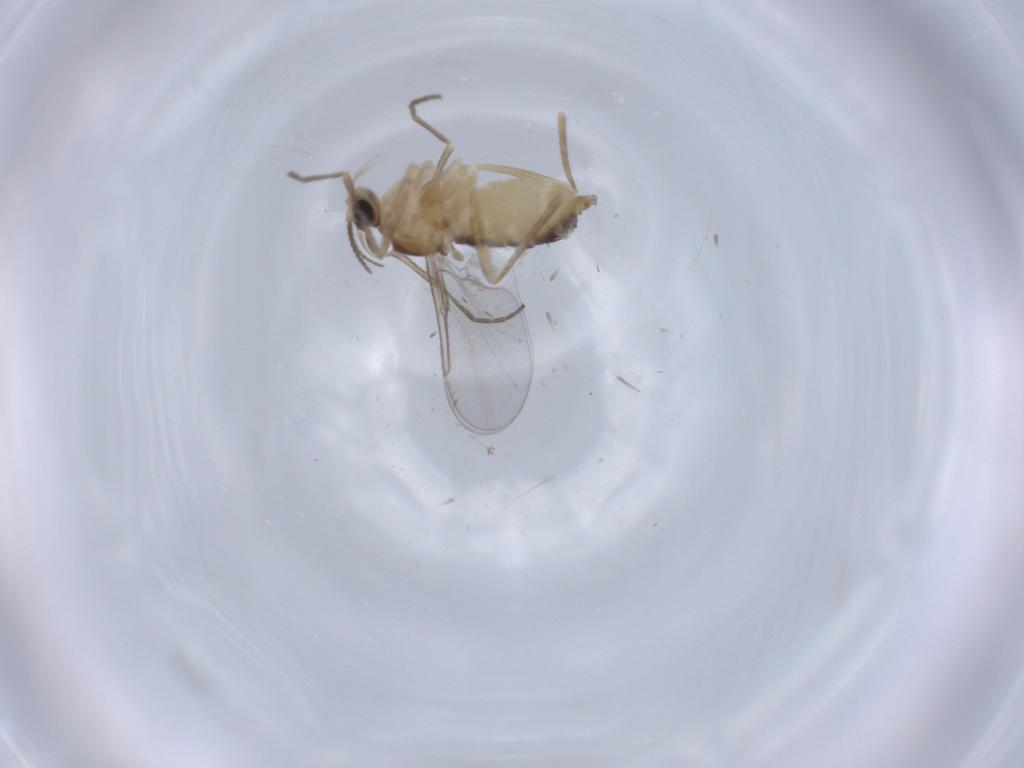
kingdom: Animalia
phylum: Arthropoda
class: Insecta
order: Diptera
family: Cecidomyiidae
